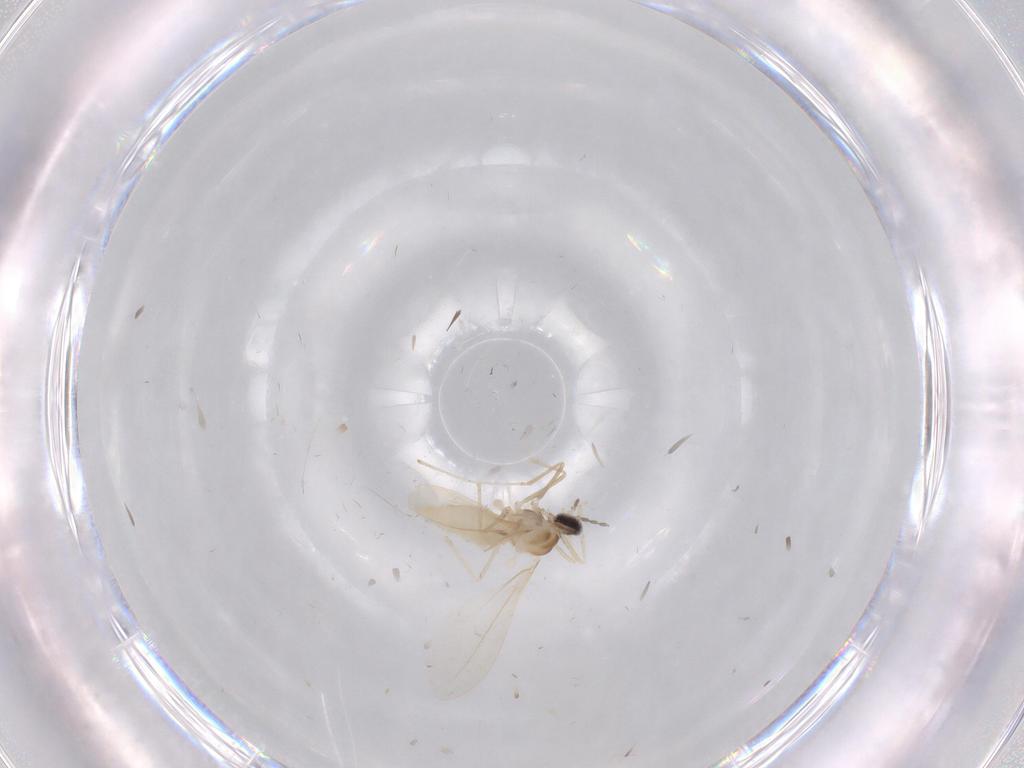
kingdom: Animalia
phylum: Arthropoda
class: Insecta
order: Diptera
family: Cecidomyiidae
